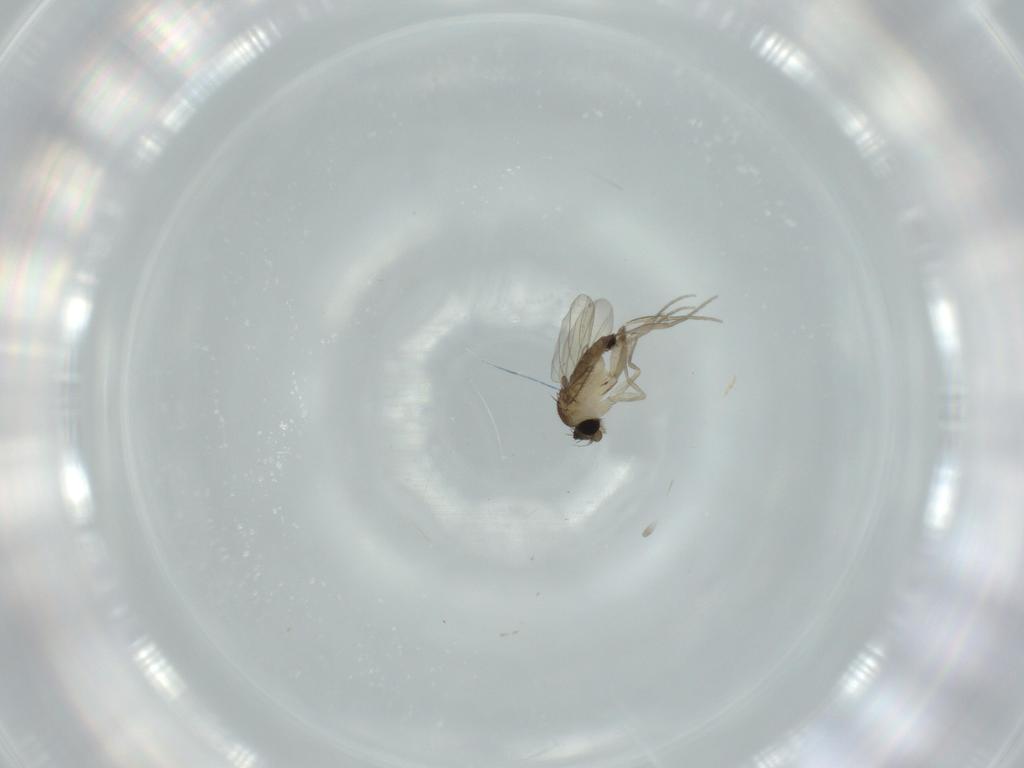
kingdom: Animalia
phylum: Arthropoda
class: Insecta
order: Diptera
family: Phoridae
